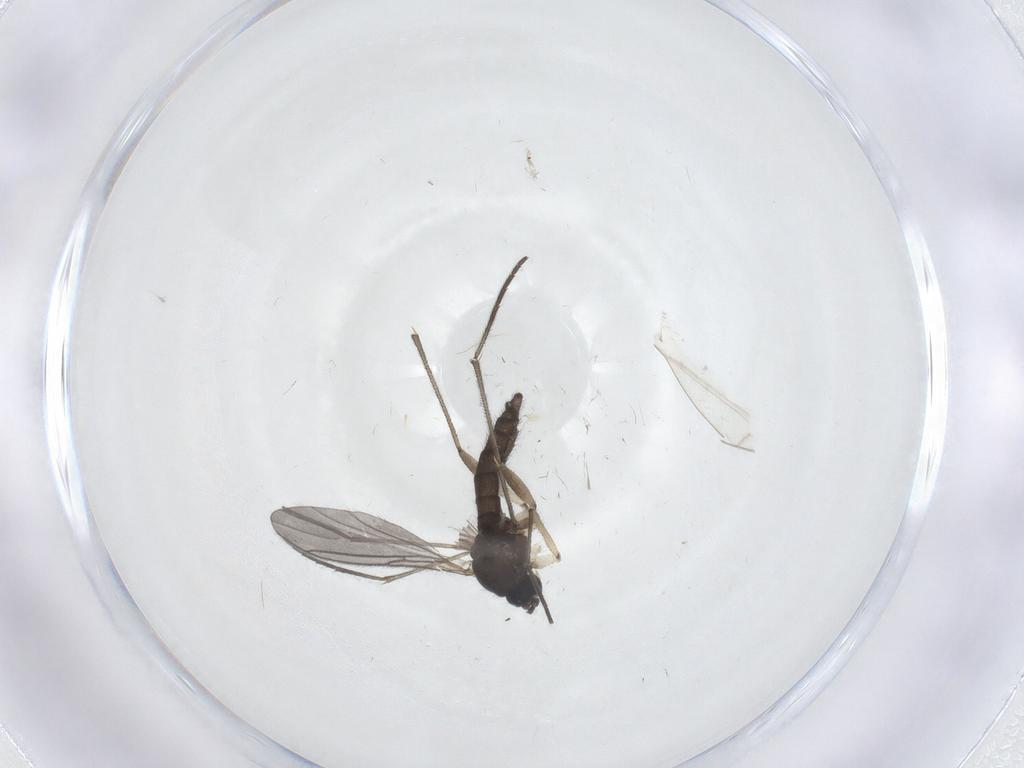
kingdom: Animalia
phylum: Arthropoda
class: Insecta
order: Diptera
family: Sciaridae
